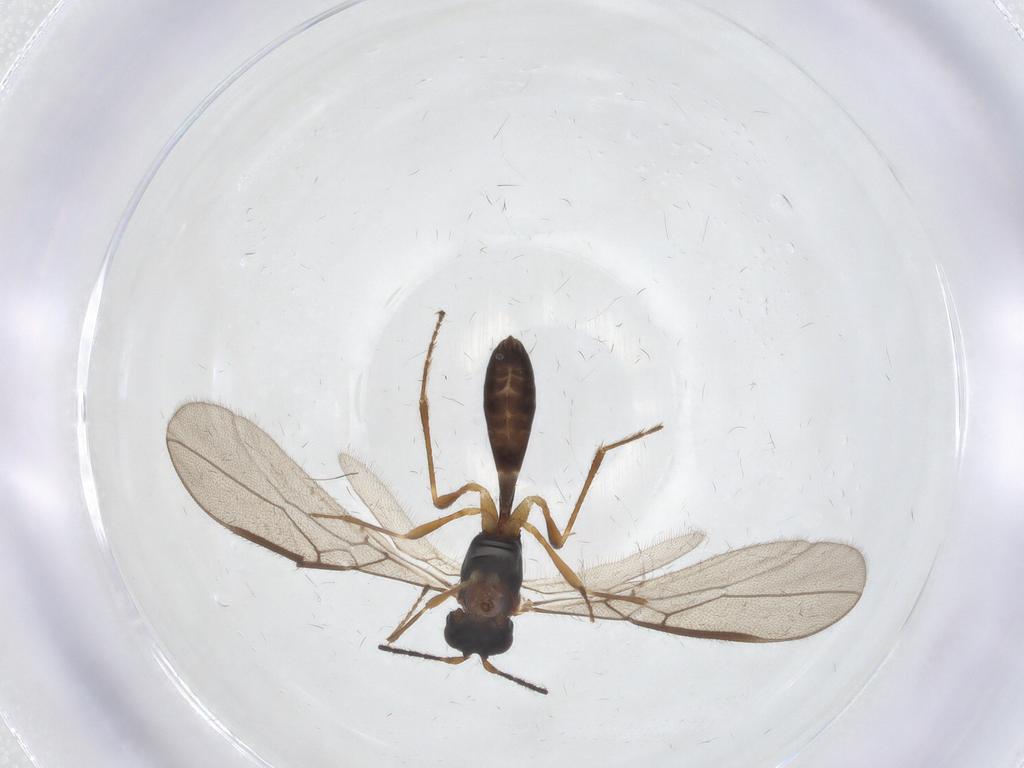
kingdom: Animalia
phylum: Arthropoda
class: Insecta
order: Hymenoptera
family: Braconidae
